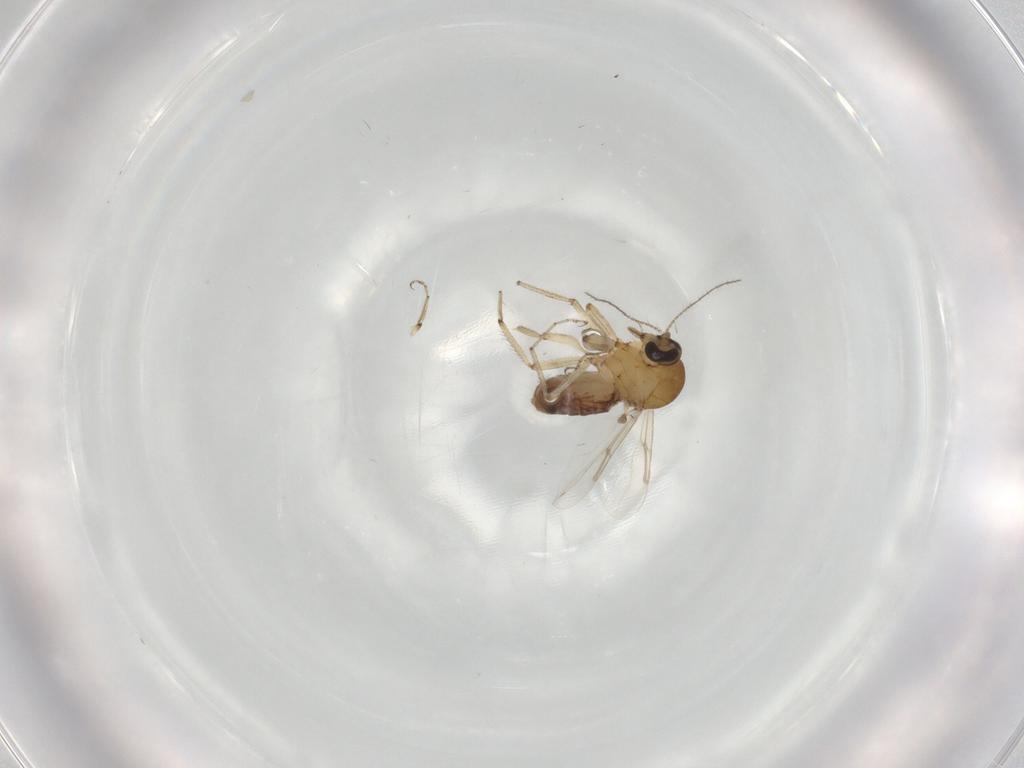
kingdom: Animalia
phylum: Arthropoda
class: Insecta
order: Diptera
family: Ceratopogonidae
